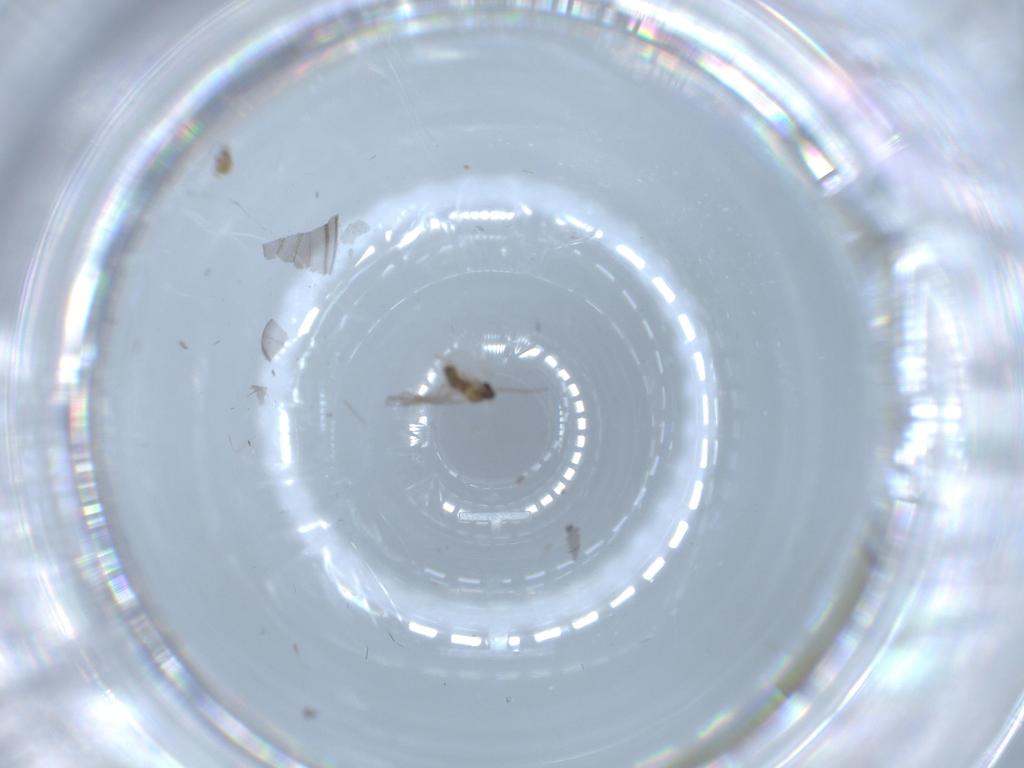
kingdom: Animalia
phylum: Arthropoda
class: Insecta
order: Diptera
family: Cecidomyiidae
